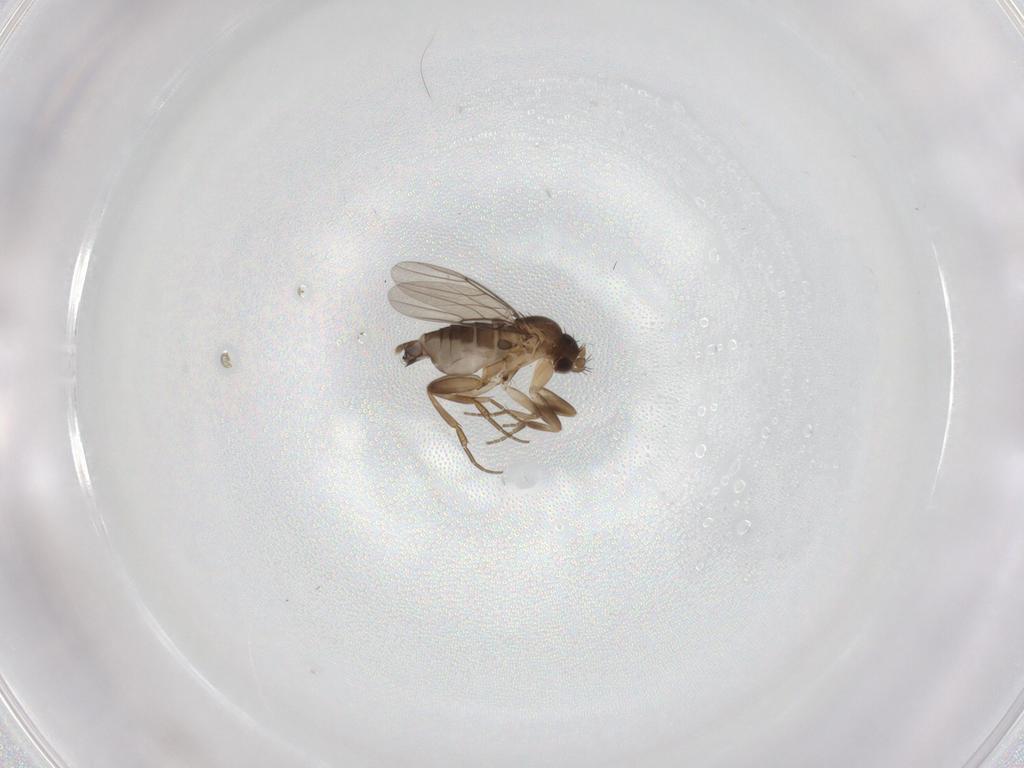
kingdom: Animalia
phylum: Arthropoda
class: Insecta
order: Diptera
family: Phoridae
